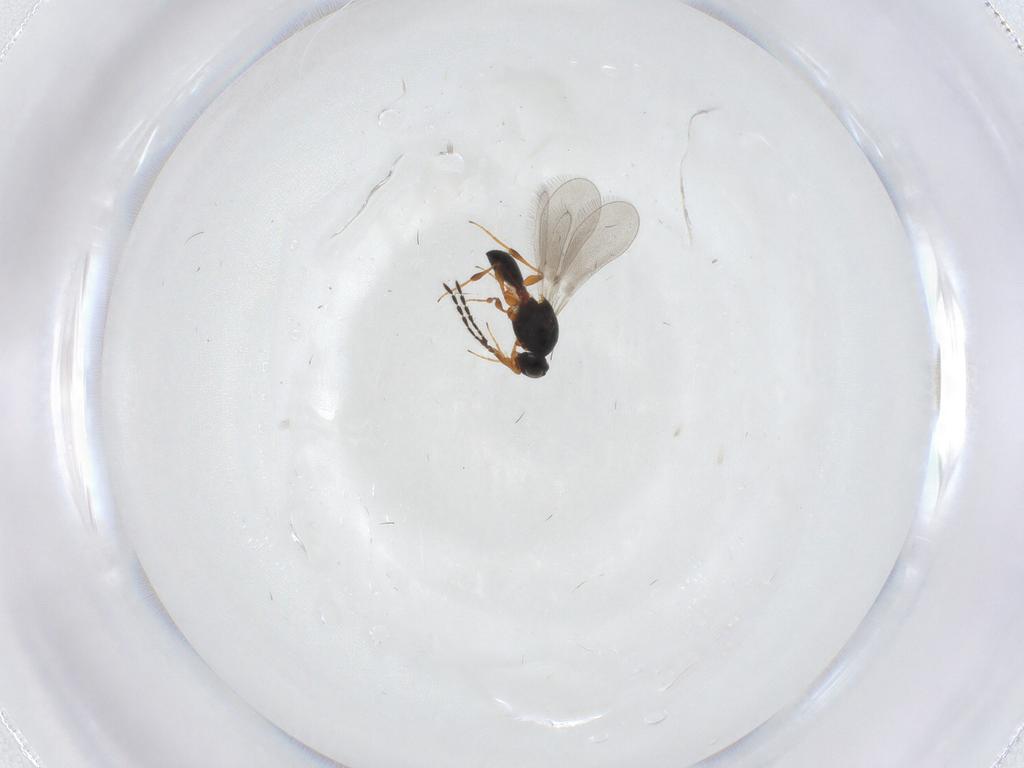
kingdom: Animalia
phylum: Arthropoda
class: Insecta
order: Hymenoptera
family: Platygastridae
